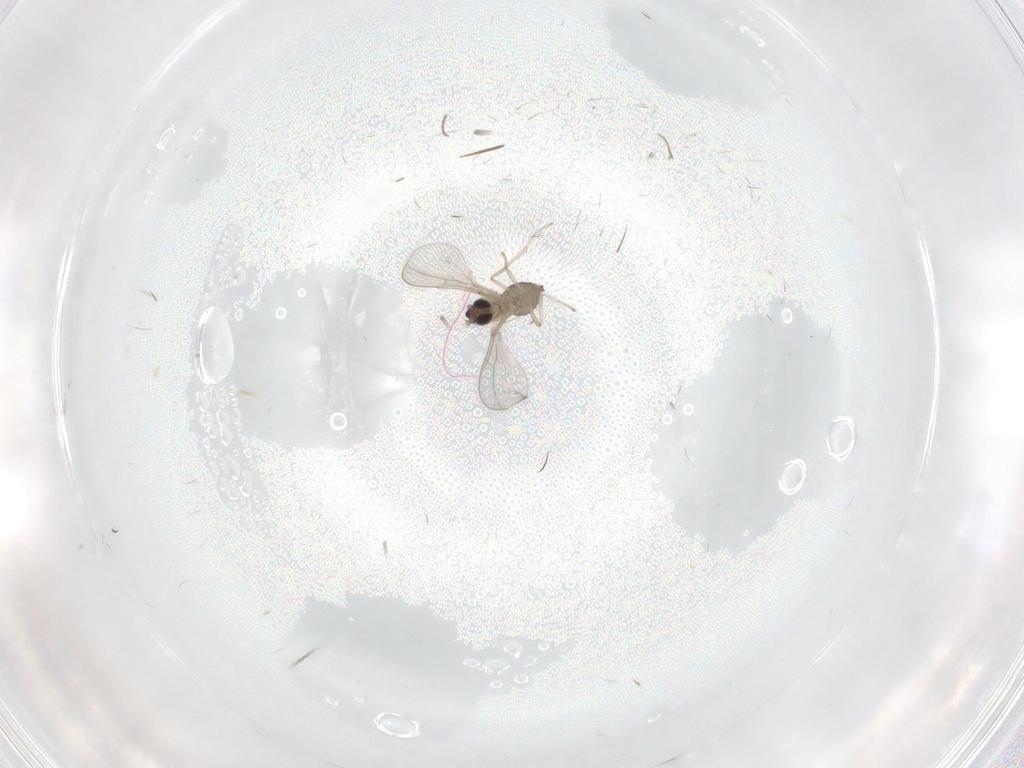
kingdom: Animalia
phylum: Arthropoda
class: Insecta
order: Diptera
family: Cecidomyiidae
